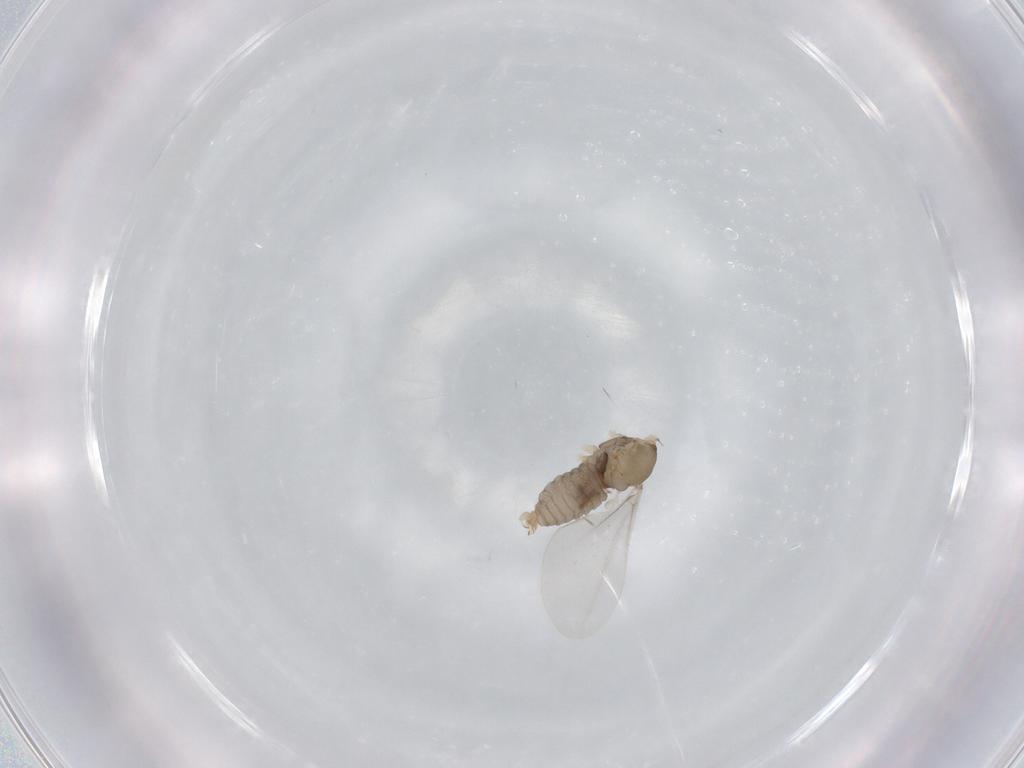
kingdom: Animalia
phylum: Arthropoda
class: Insecta
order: Diptera
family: Cecidomyiidae
